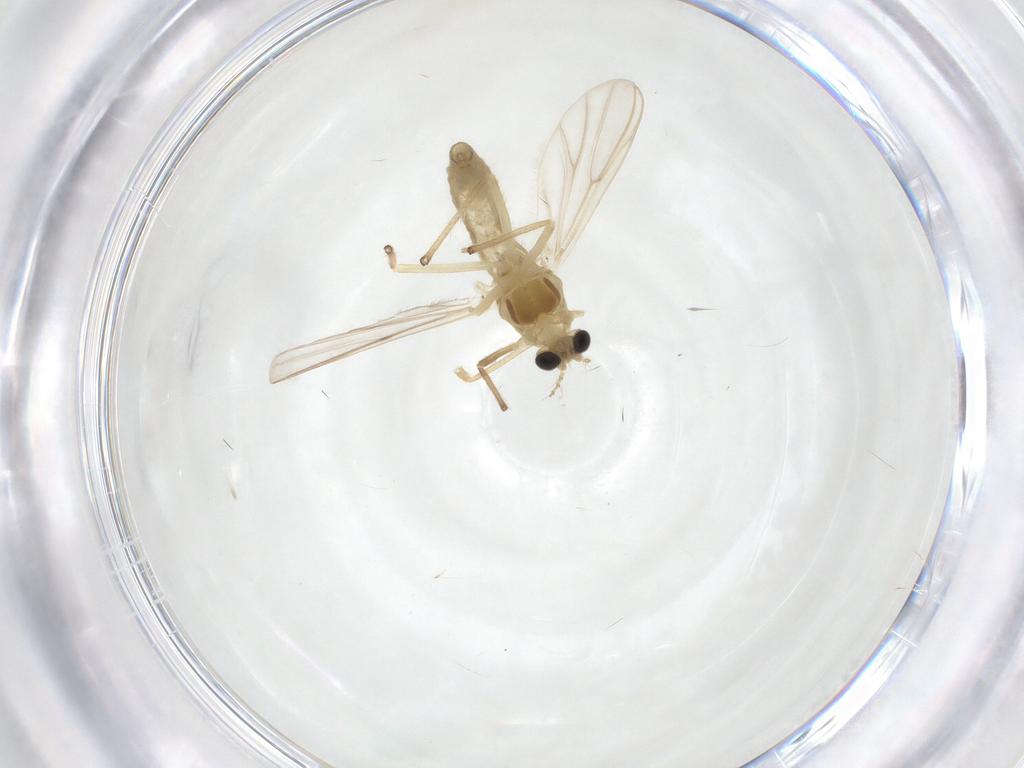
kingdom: Animalia
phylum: Arthropoda
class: Insecta
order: Diptera
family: Chironomidae
